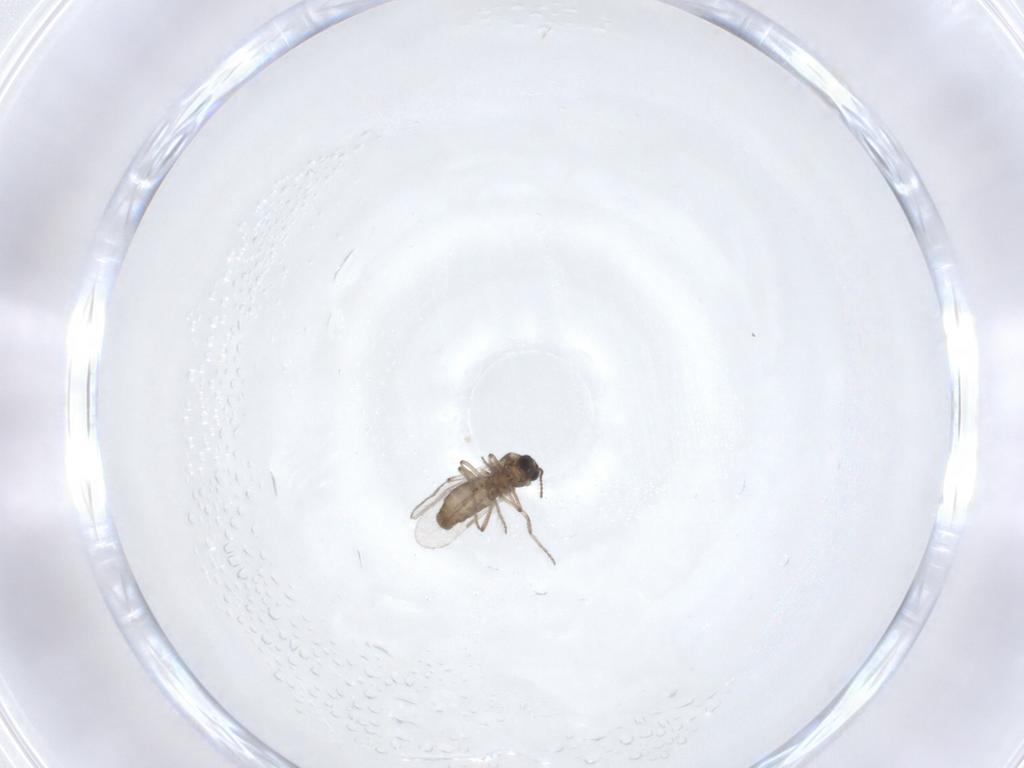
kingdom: Animalia
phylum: Arthropoda
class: Insecta
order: Diptera
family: Ceratopogonidae
